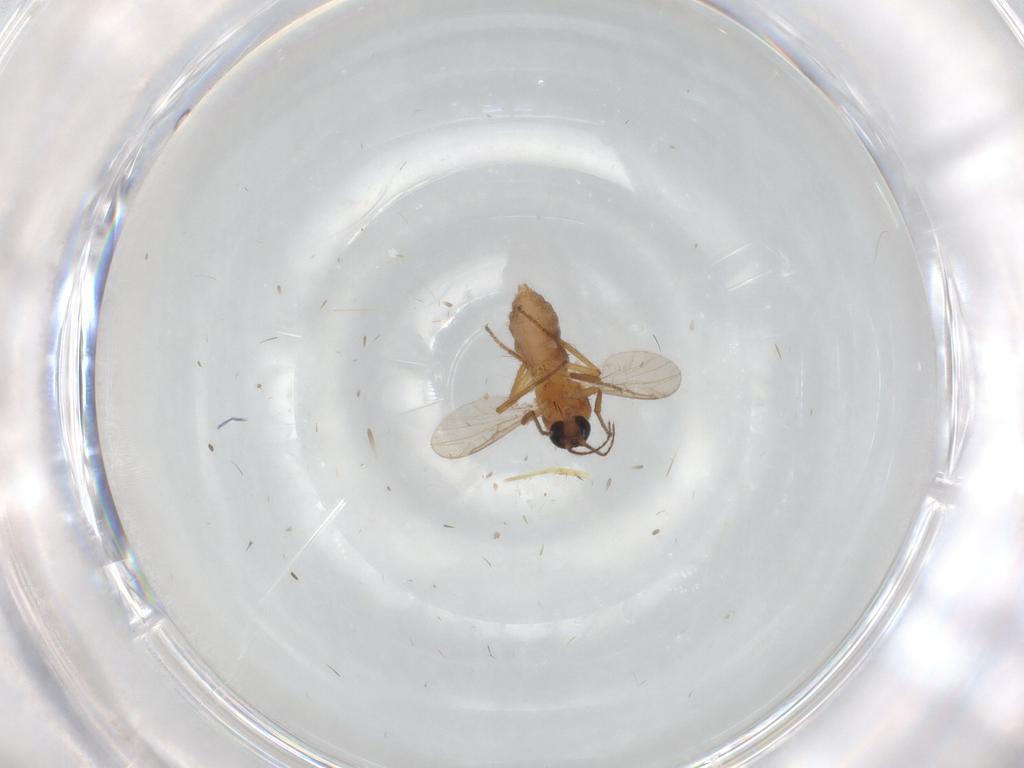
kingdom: Animalia
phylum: Arthropoda
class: Insecta
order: Diptera
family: Ceratopogonidae
